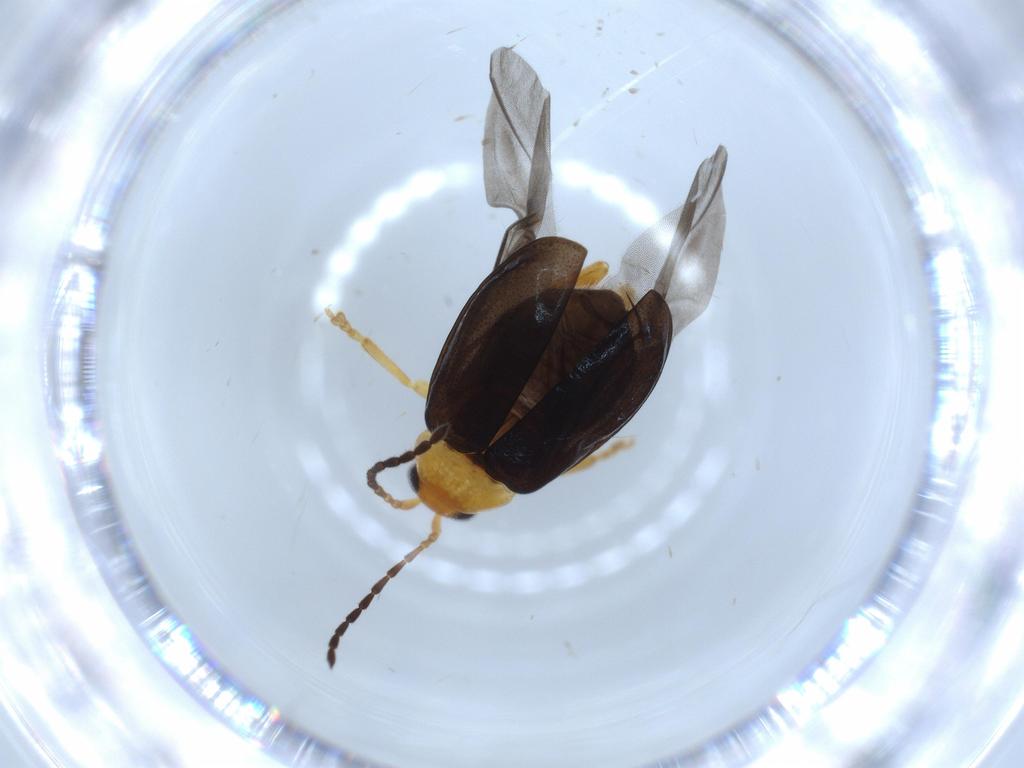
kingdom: Animalia
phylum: Arthropoda
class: Insecta
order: Coleoptera
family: Chrysomelidae
